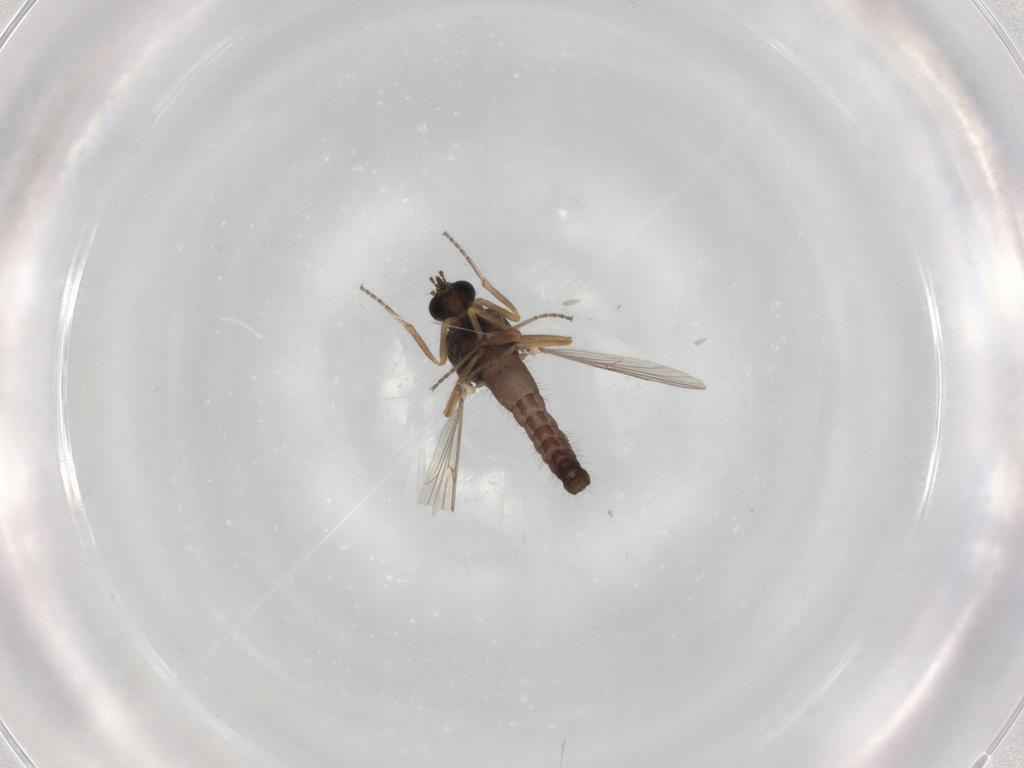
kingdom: Animalia
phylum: Arthropoda
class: Insecta
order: Diptera
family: Ceratopogonidae
